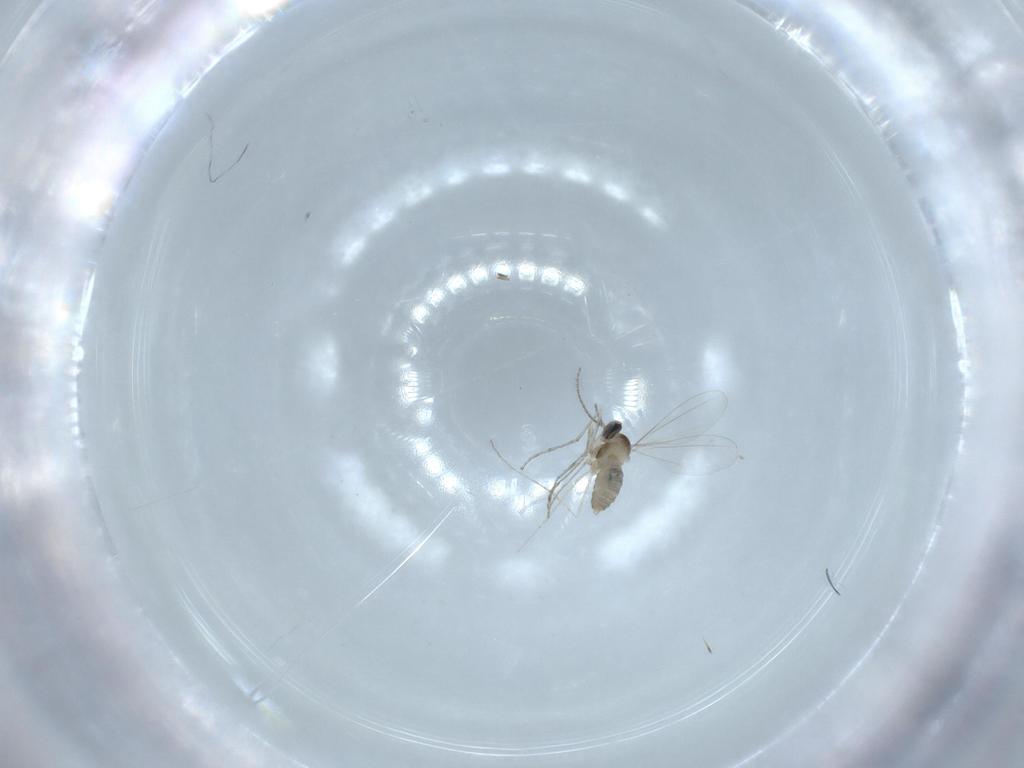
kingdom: Animalia
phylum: Arthropoda
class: Insecta
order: Diptera
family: Cecidomyiidae
